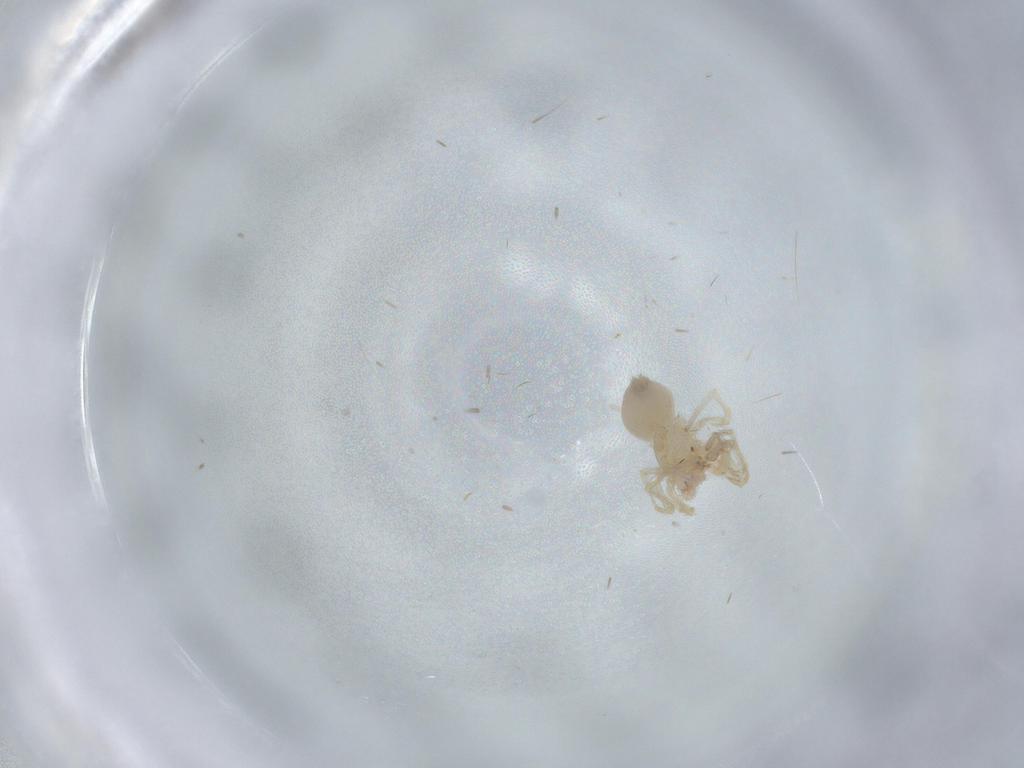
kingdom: Animalia
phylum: Arthropoda
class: Arachnida
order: Araneae
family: Oonopidae
